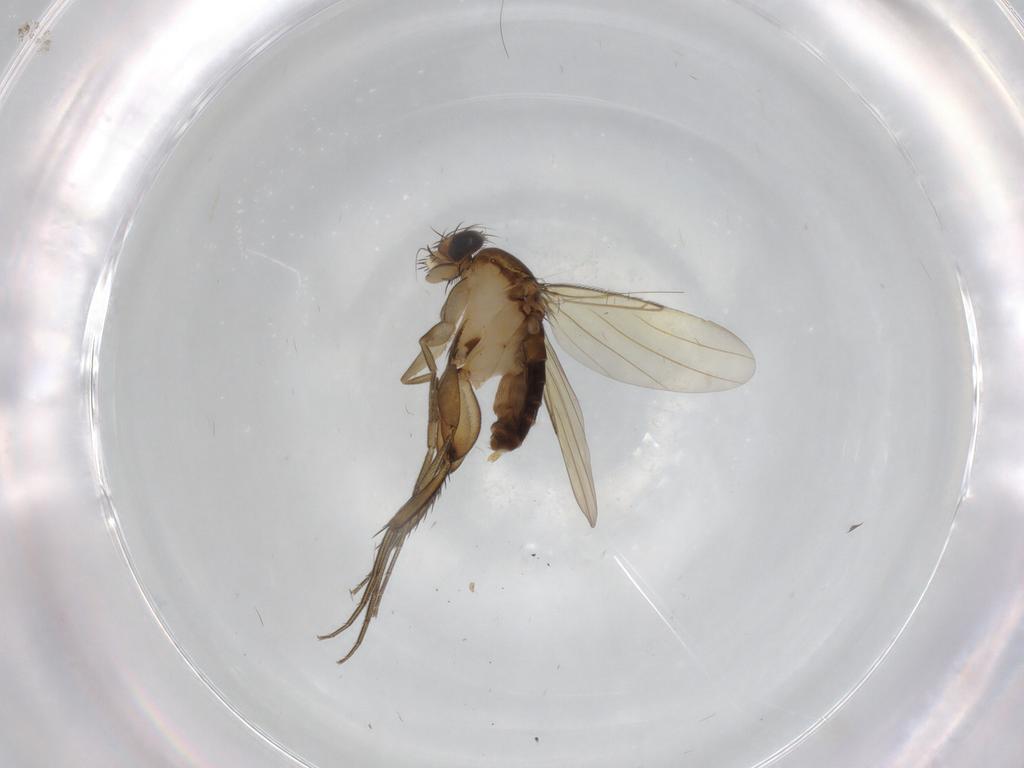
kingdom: Animalia
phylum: Arthropoda
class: Insecta
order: Diptera
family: Phoridae
